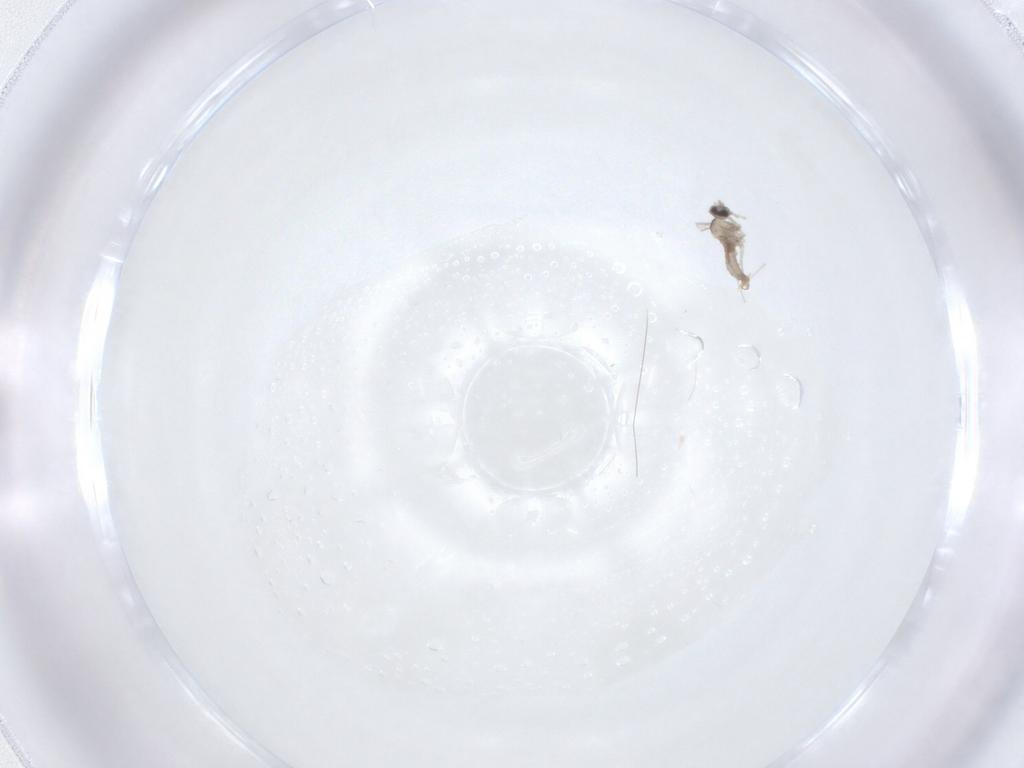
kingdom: Animalia
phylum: Arthropoda
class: Insecta
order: Diptera
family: Cecidomyiidae
